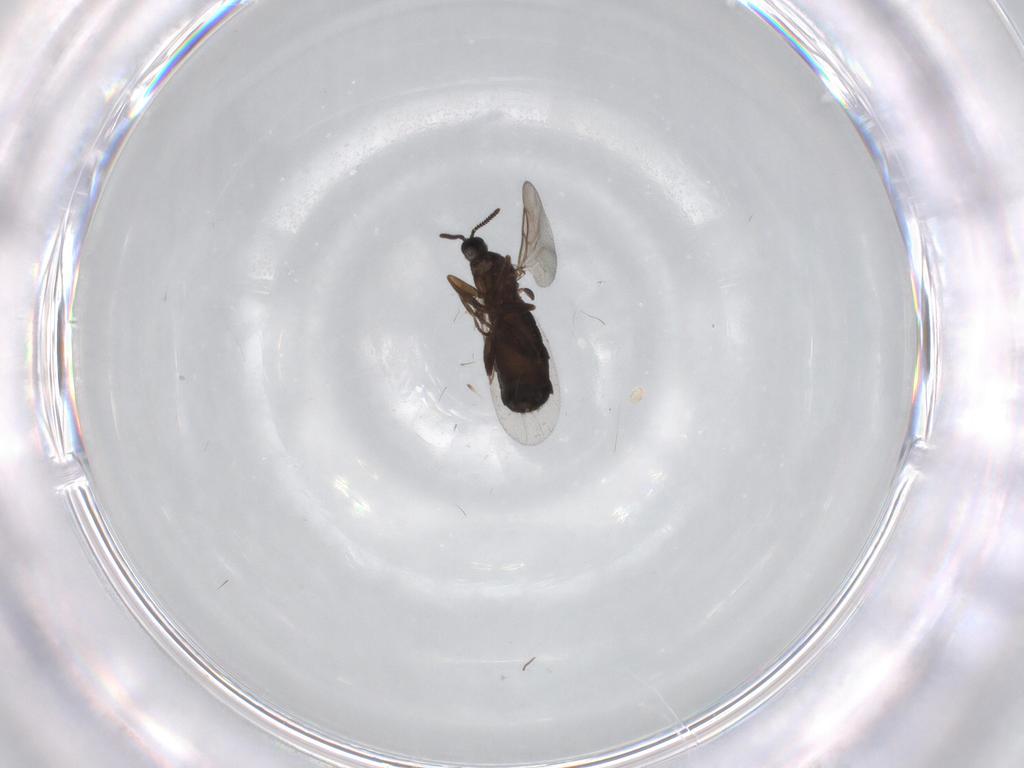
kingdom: Animalia
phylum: Arthropoda
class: Insecta
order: Diptera
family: Scatopsidae
